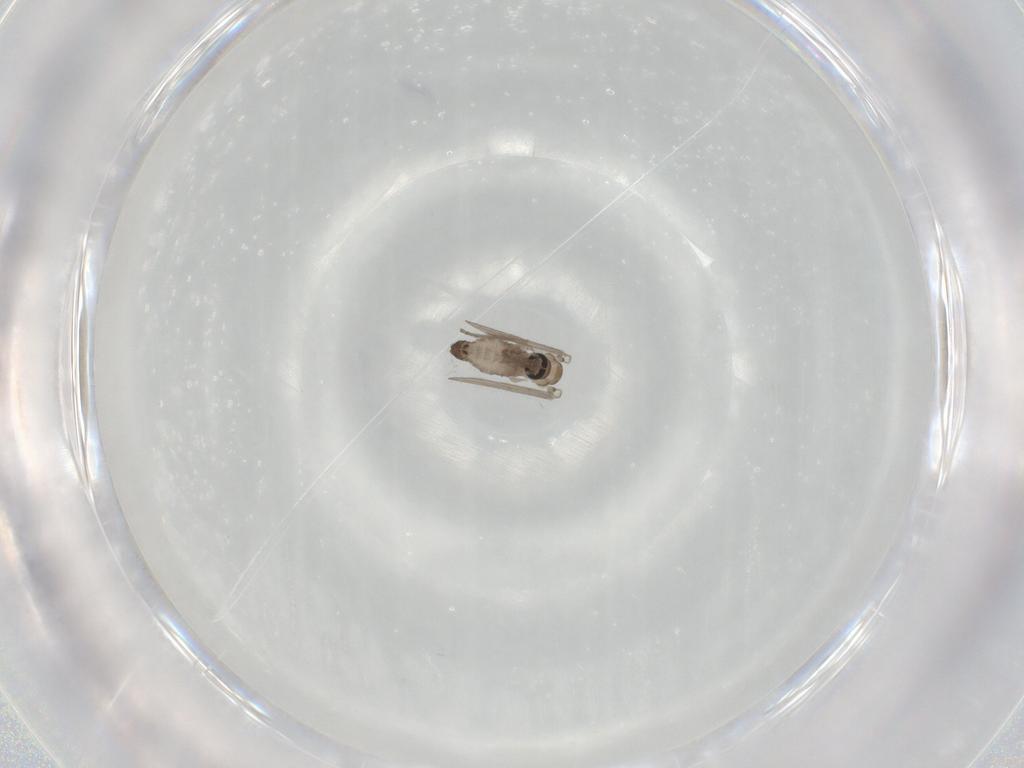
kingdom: Animalia
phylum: Arthropoda
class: Insecta
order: Diptera
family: Psychodidae
